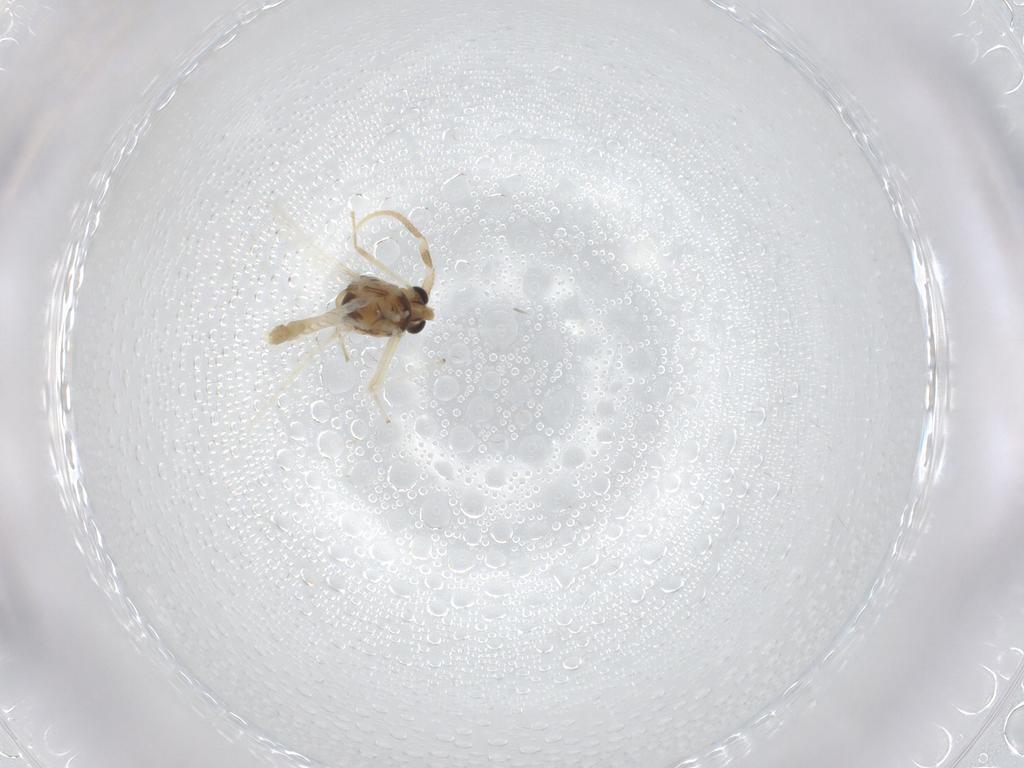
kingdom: Animalia
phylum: Arthropoda
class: Insecta
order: Diptera
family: Chironomidae
